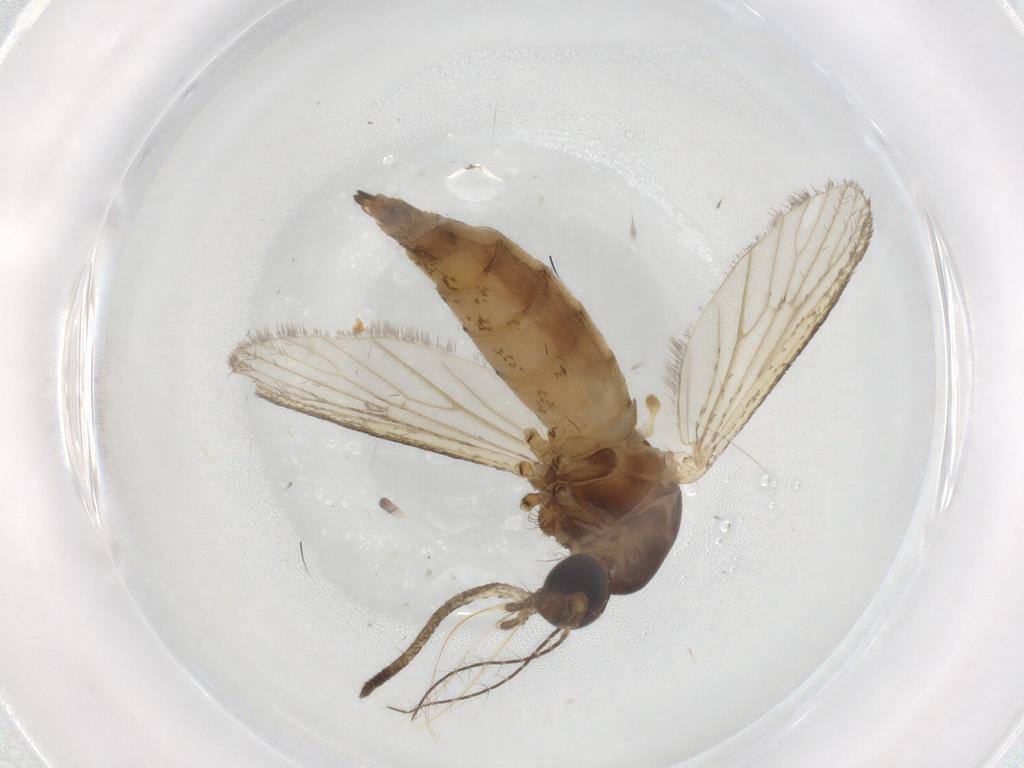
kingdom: Animalia
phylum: Arthropoda
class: Insecta
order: Diptera
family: Cecidomyiidae
